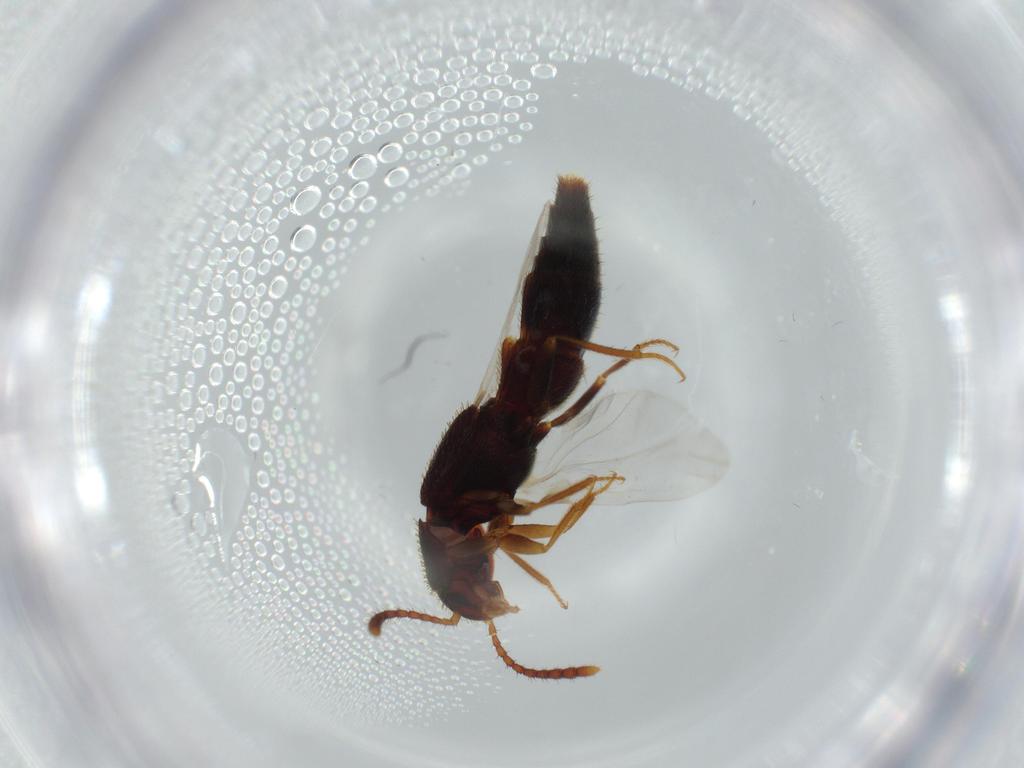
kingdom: Animalia
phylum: Arthropoda
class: Insecta
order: Coleoptera
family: Staphylinidae
